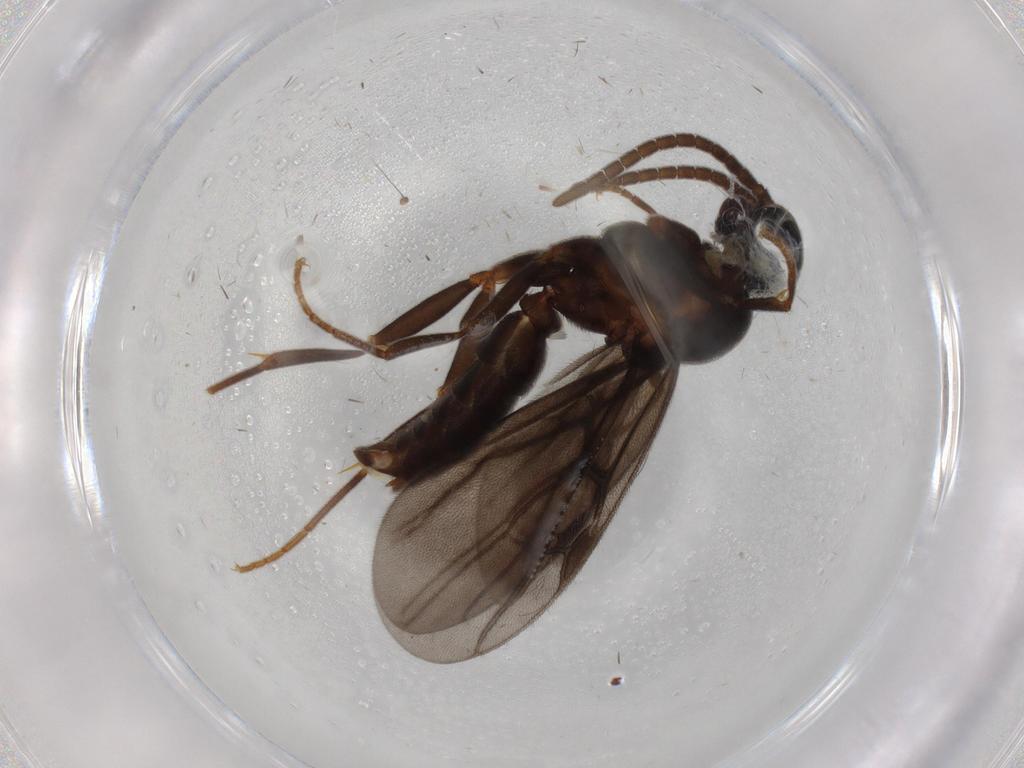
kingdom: Animalia
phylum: Arthropoda
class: Insecta
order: Hymenoptera
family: Formicidae
